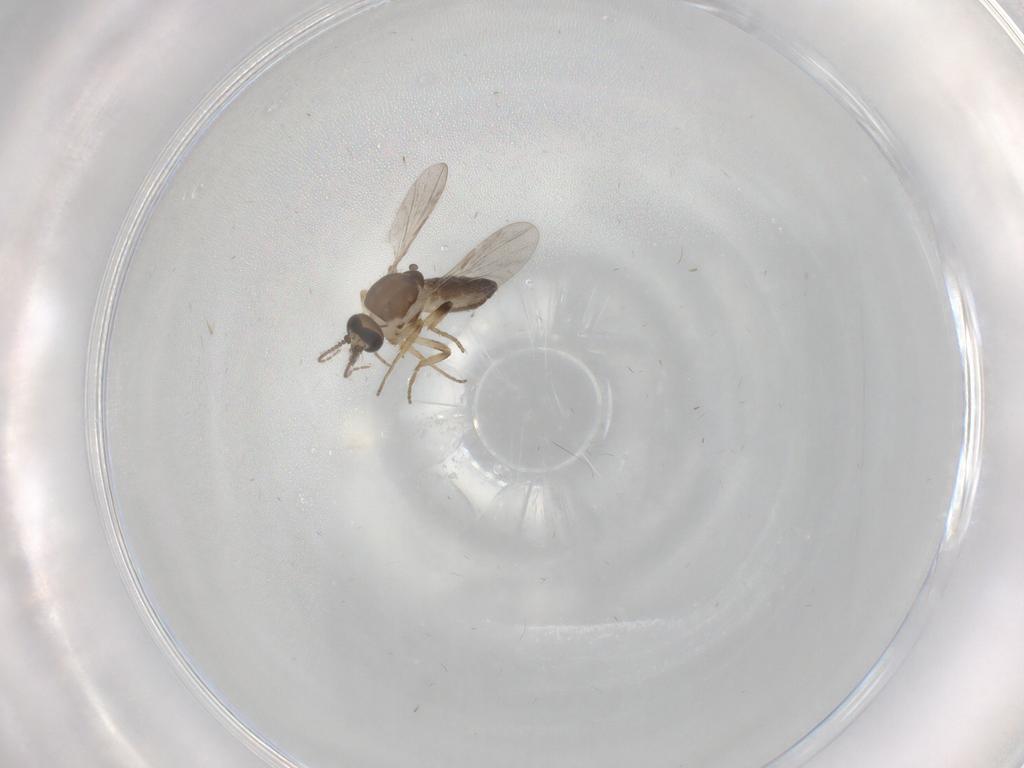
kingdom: Animalia
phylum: Arthropoda
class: Insecta
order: Diptera
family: Ceratopogonidae
